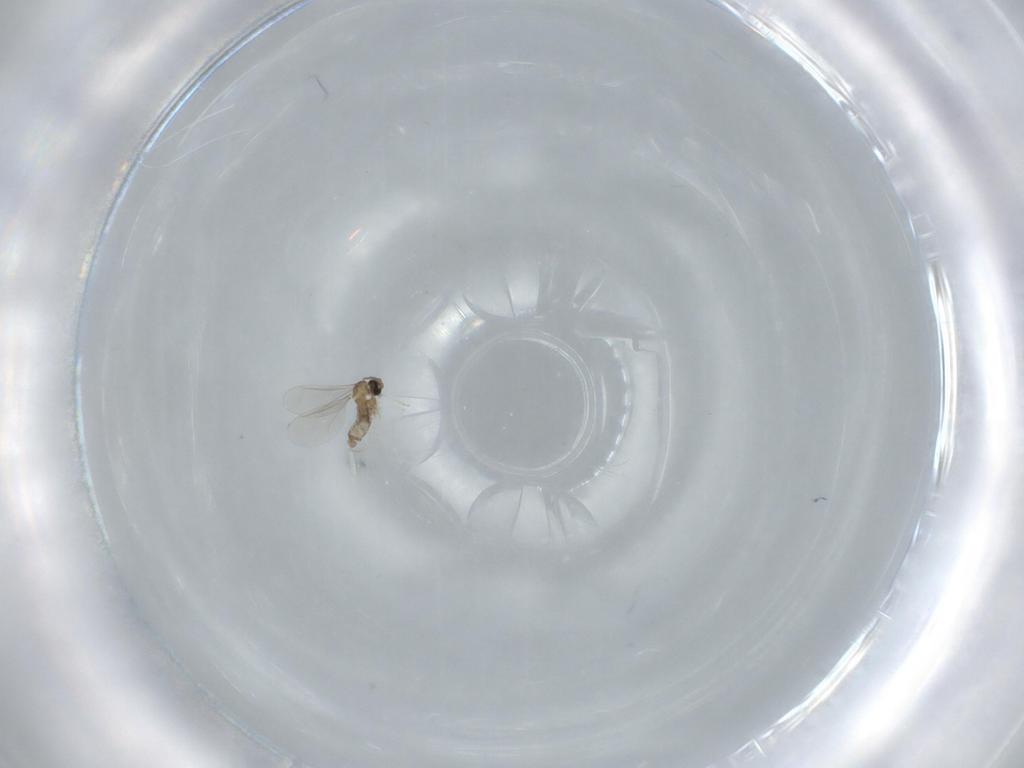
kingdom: Animalia
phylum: Arthropoda
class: Insecta
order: Diptera
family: Cecidomyiidae
